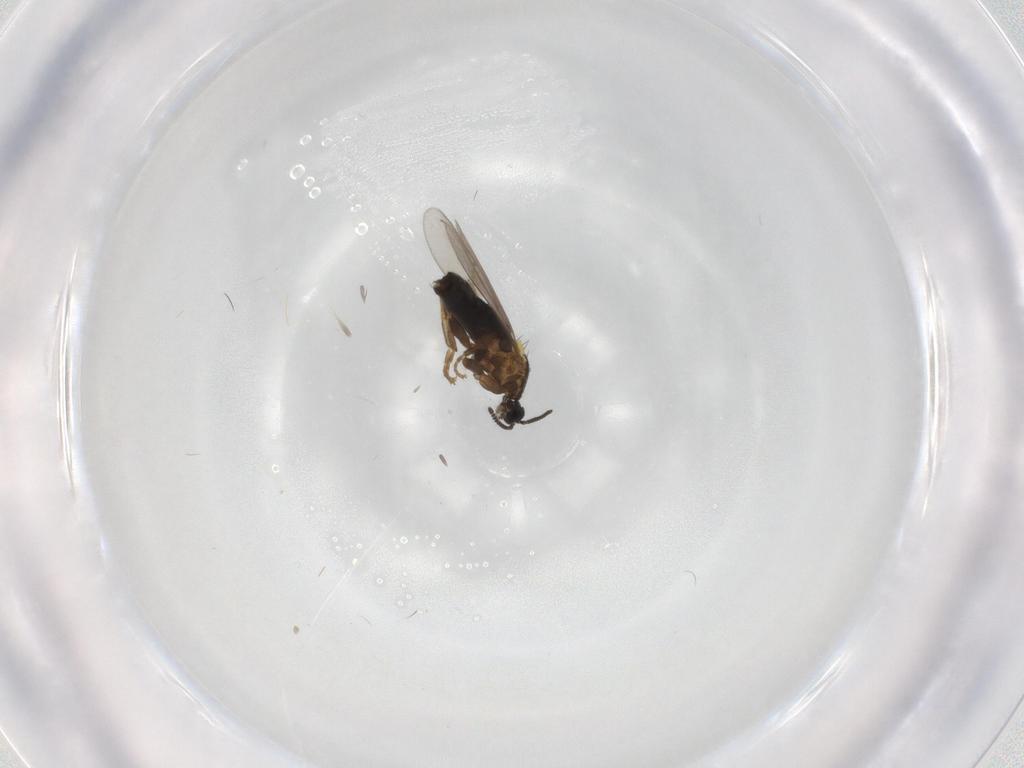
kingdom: Animalia
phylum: Arthropoda
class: Insecta
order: Diptera
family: Scatopsidae
